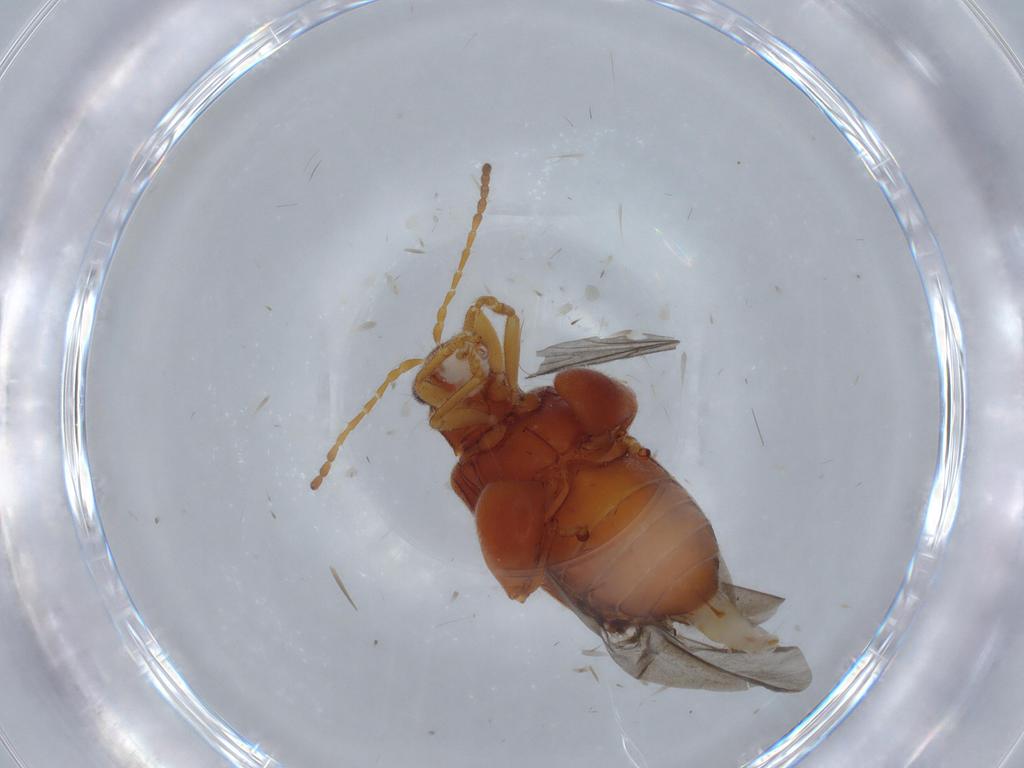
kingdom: Animalia
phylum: Arthropoda
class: Insecta
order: Coleoptera
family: Chrysomelidae
